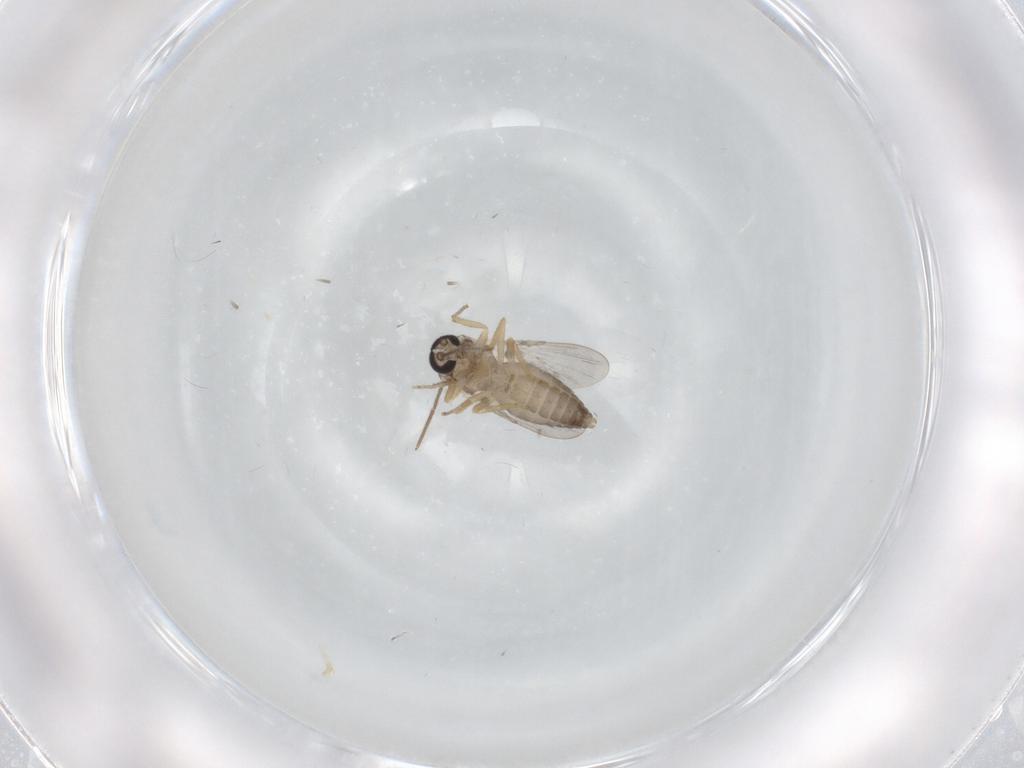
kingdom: Animalia
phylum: Arthropoda
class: Insecta
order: Diptera
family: Ceratopogonidae
